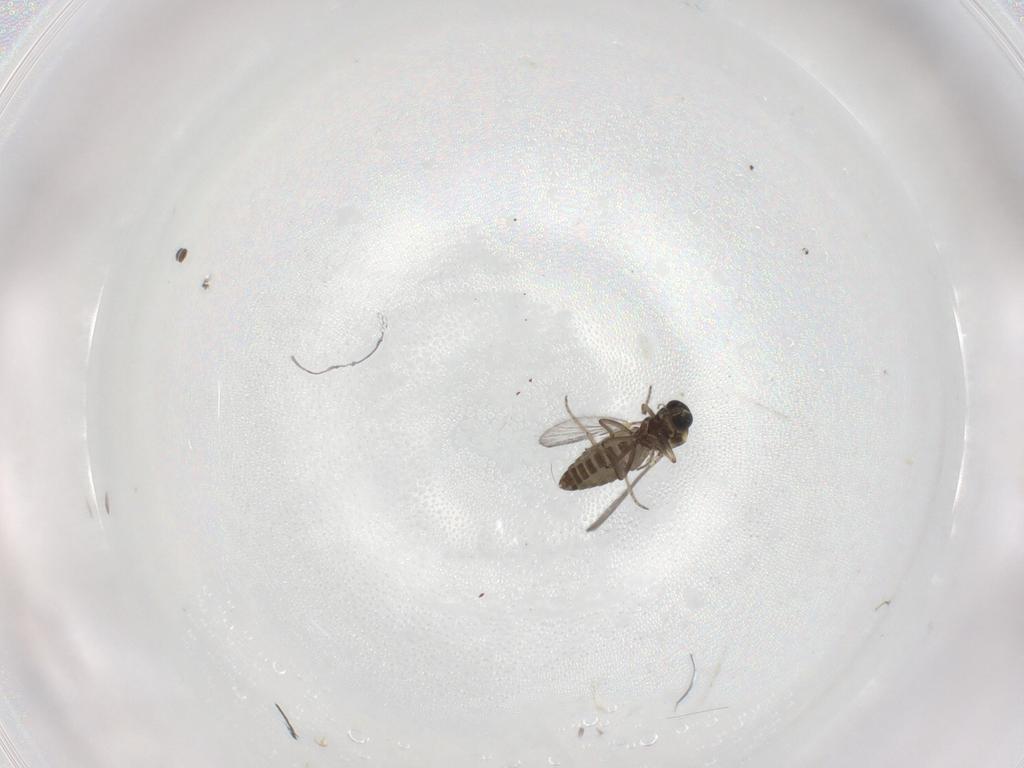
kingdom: Animalia
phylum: Arthropoda
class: Insecta
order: Diptera
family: Ceratopogonidae
